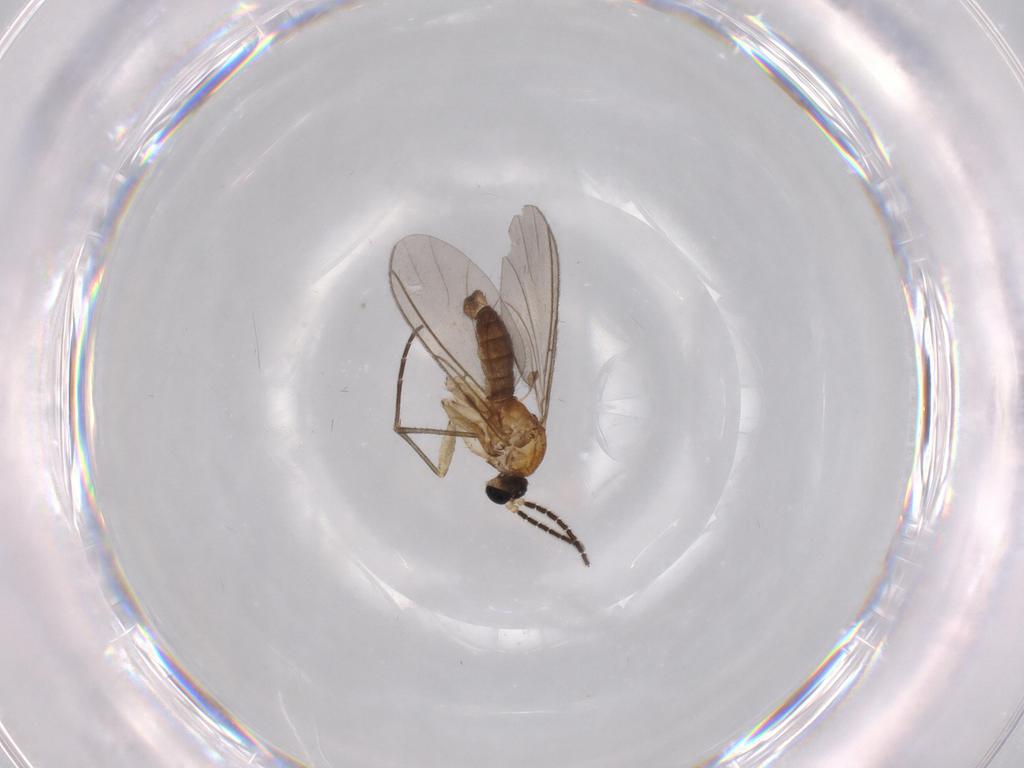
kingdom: Animalia
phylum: Arthropoda
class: Insecta
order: Diptera
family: Sciaridae
